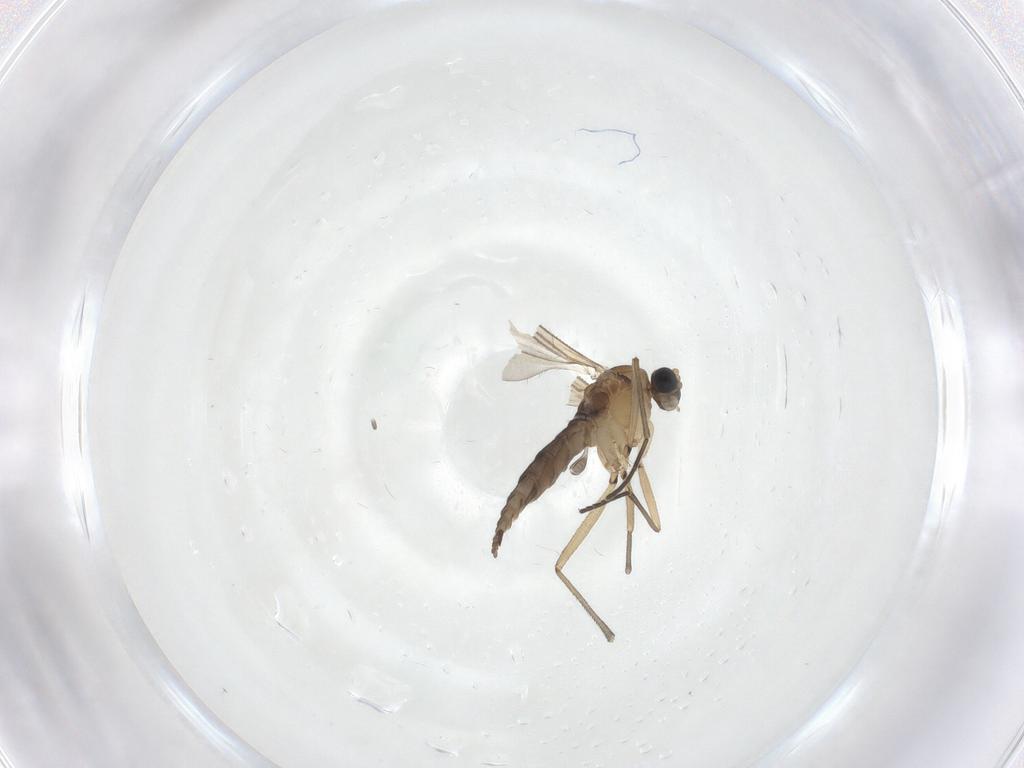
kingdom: Animalia
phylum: Arthropoda
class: Insecta
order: Diptera
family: Sciaridae
